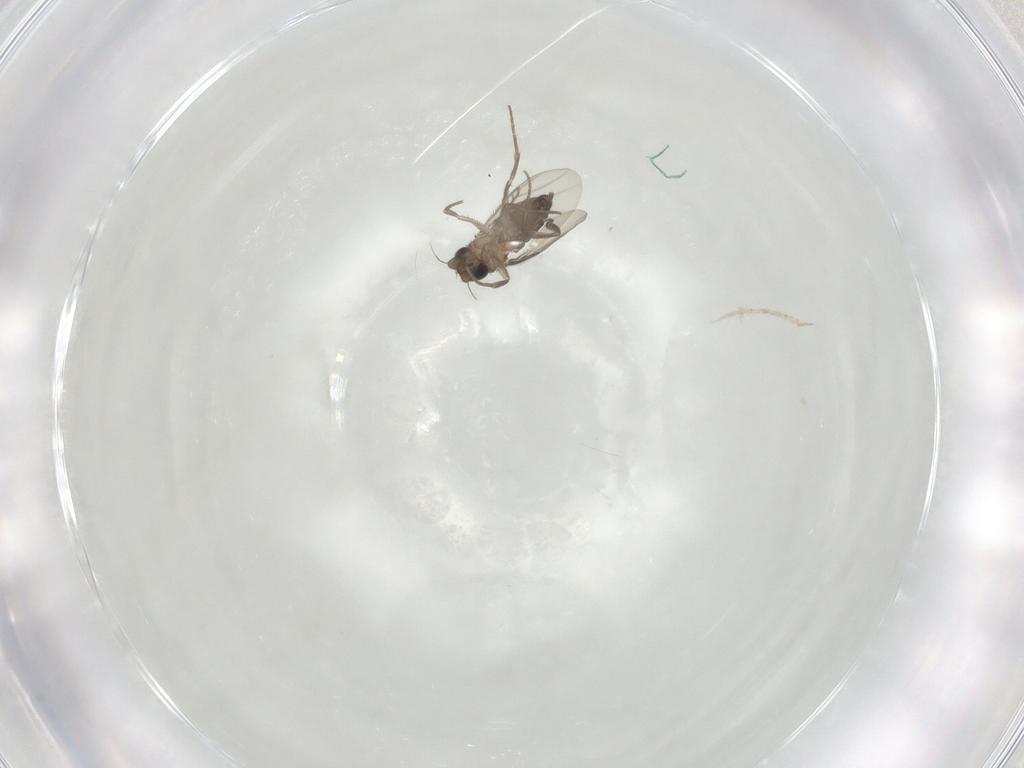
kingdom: Animalia
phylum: Arthropoda
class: Insecta
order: Diptera
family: Phoridae
